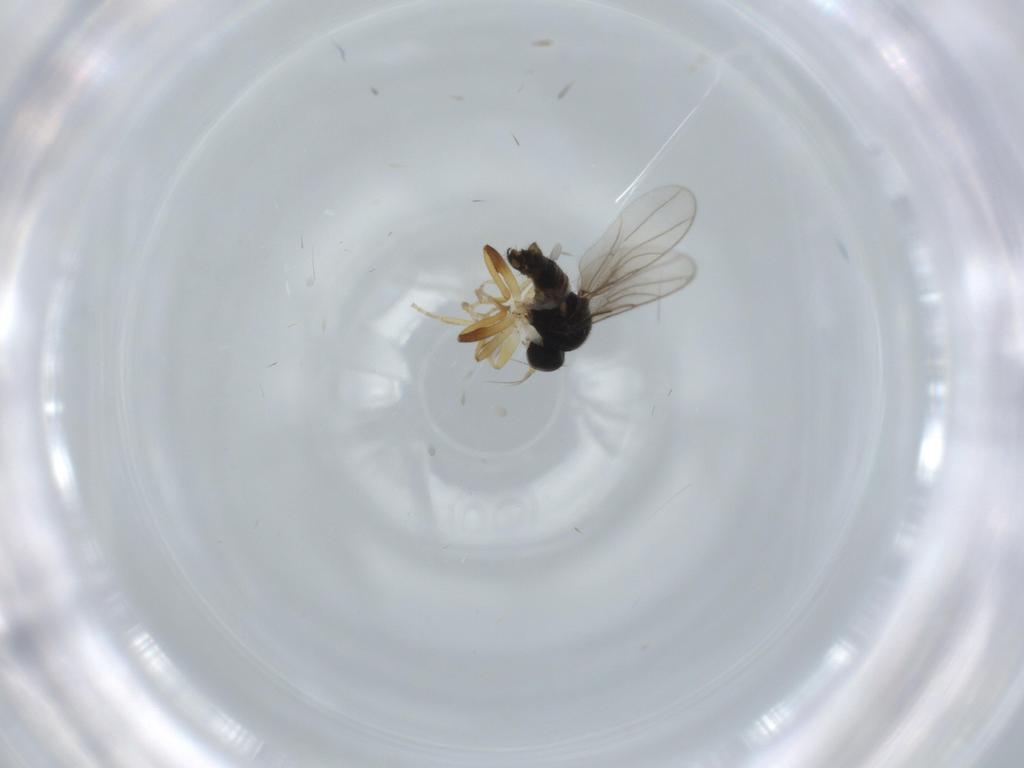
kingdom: Animalia
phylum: Arthropoda
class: Insecta
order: Diptera
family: Hybotidae
